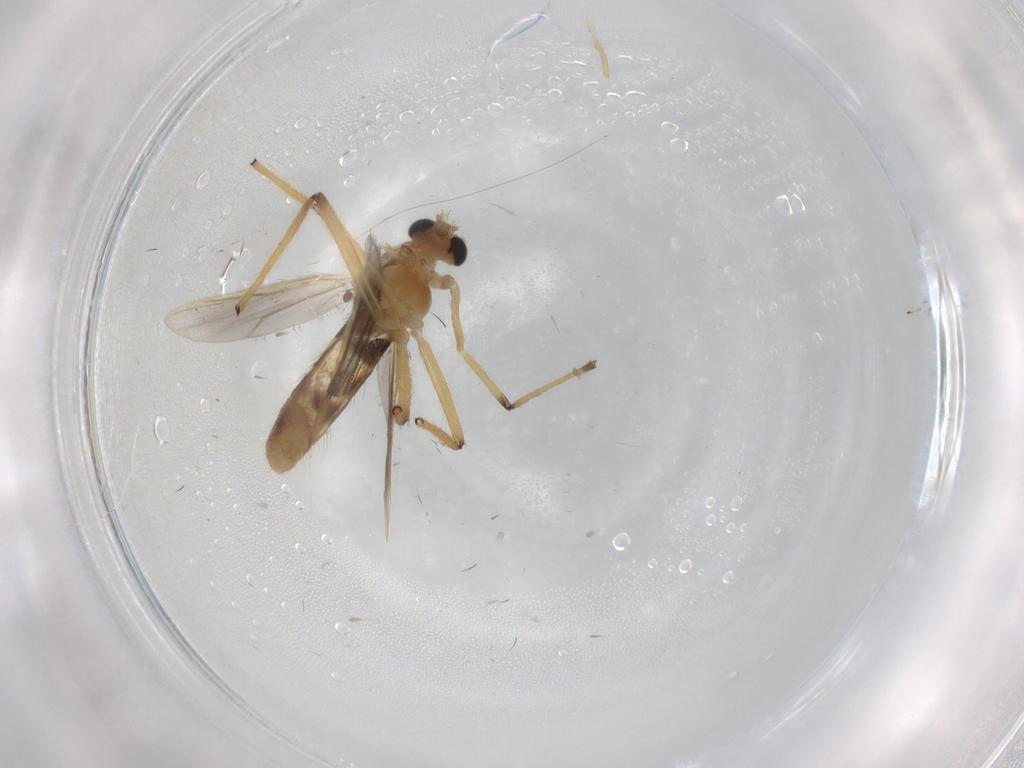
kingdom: Animalia
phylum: Arthropoda
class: Insecta
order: Diptera
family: Chironomidae
